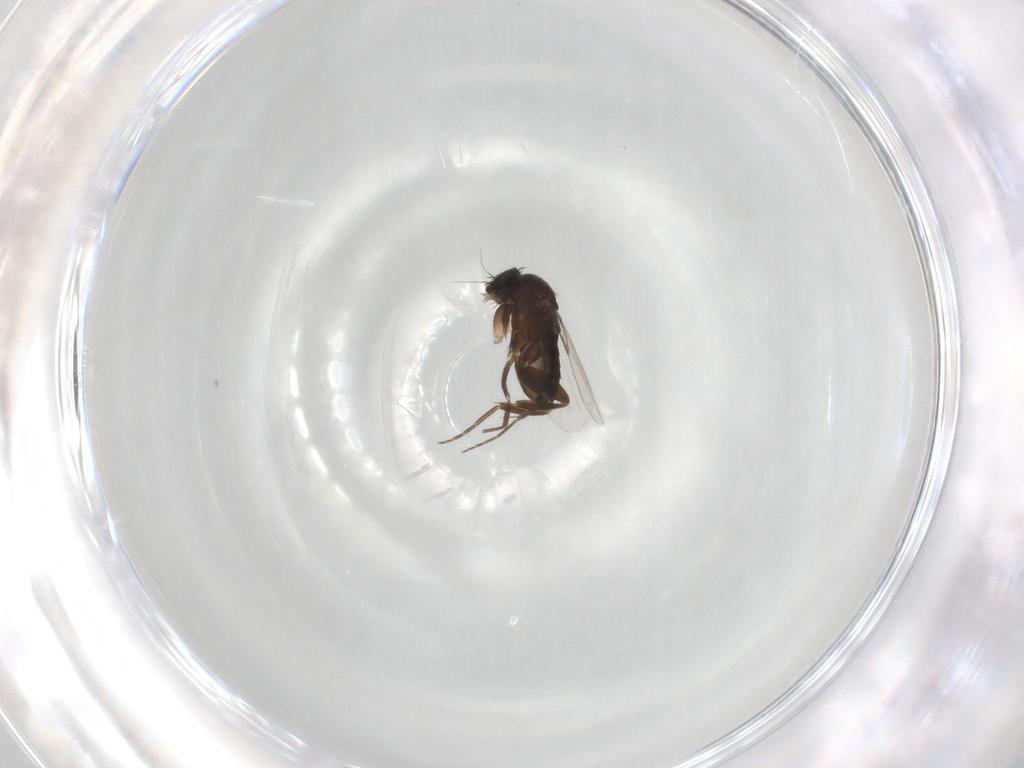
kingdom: Animalia
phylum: Arthropoda
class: Insecta
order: Diptera
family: Phoridae
